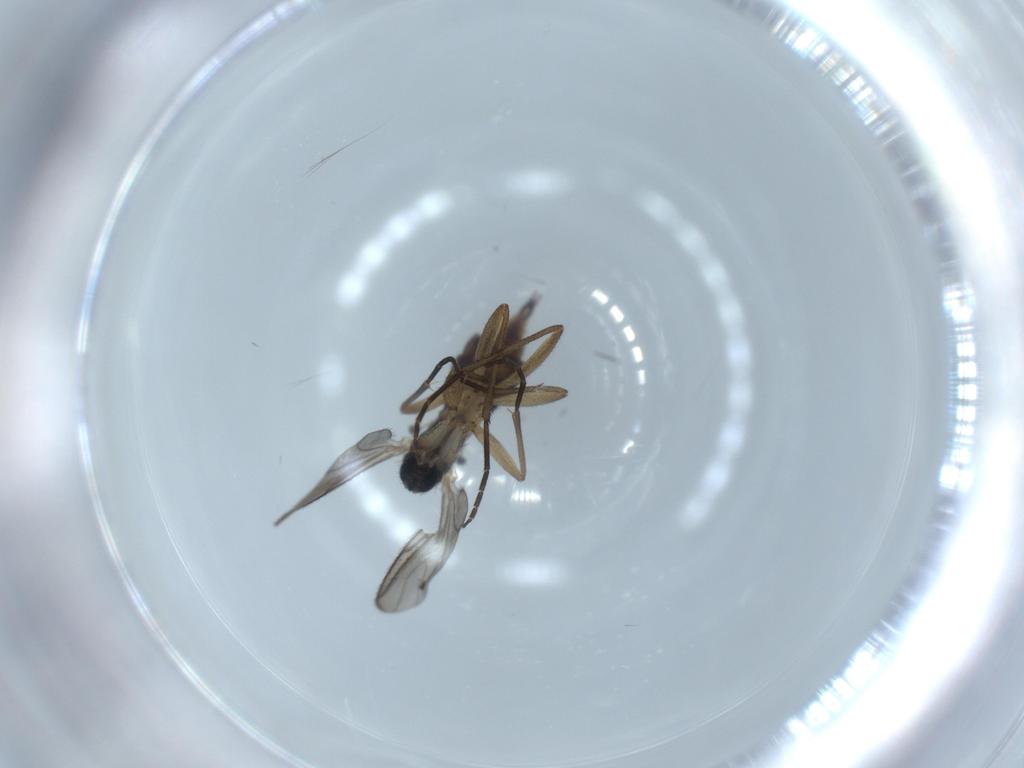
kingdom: Animalia
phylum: Arthropoda
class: Insecta
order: Diptera
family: Sciaridae
